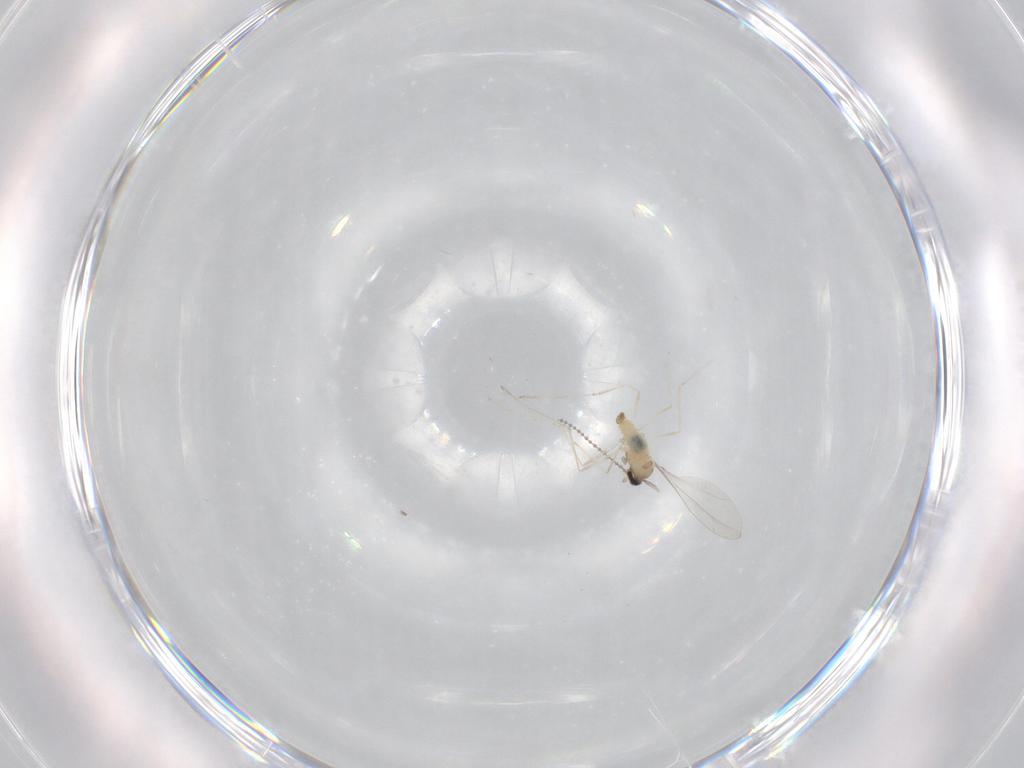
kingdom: Animalia
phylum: Arthropoda
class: Insecta
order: Diptera
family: Cecidomyiidae
